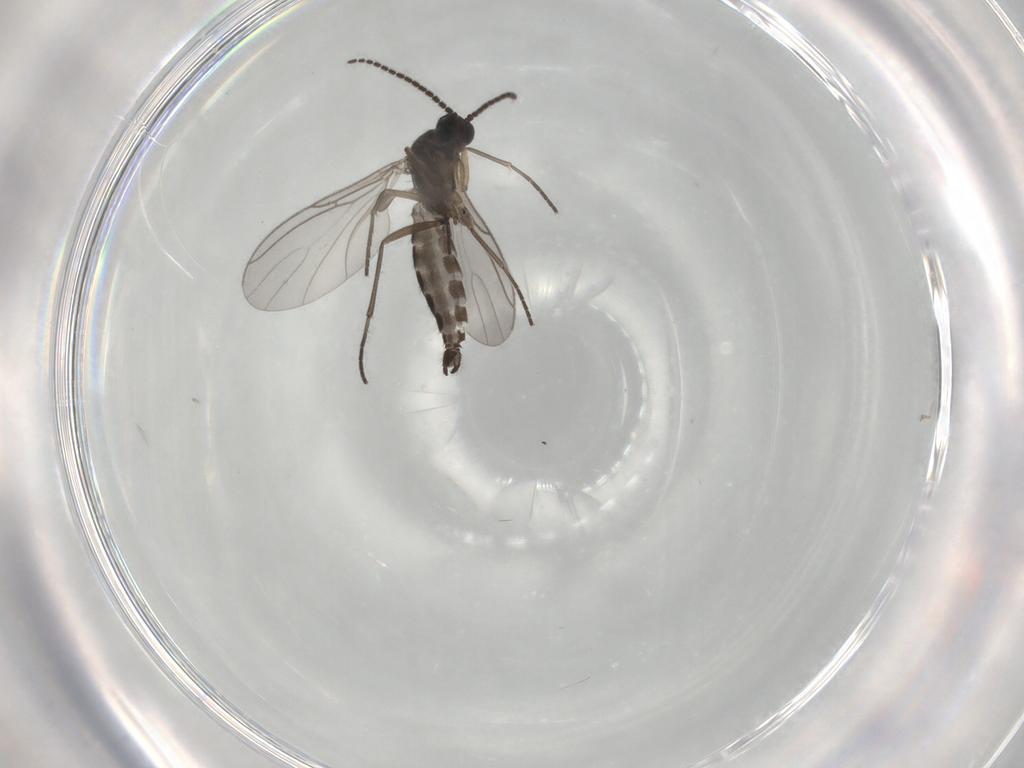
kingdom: Animalia
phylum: Arthropoda
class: Insecta
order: Diptera
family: Sciaridae
